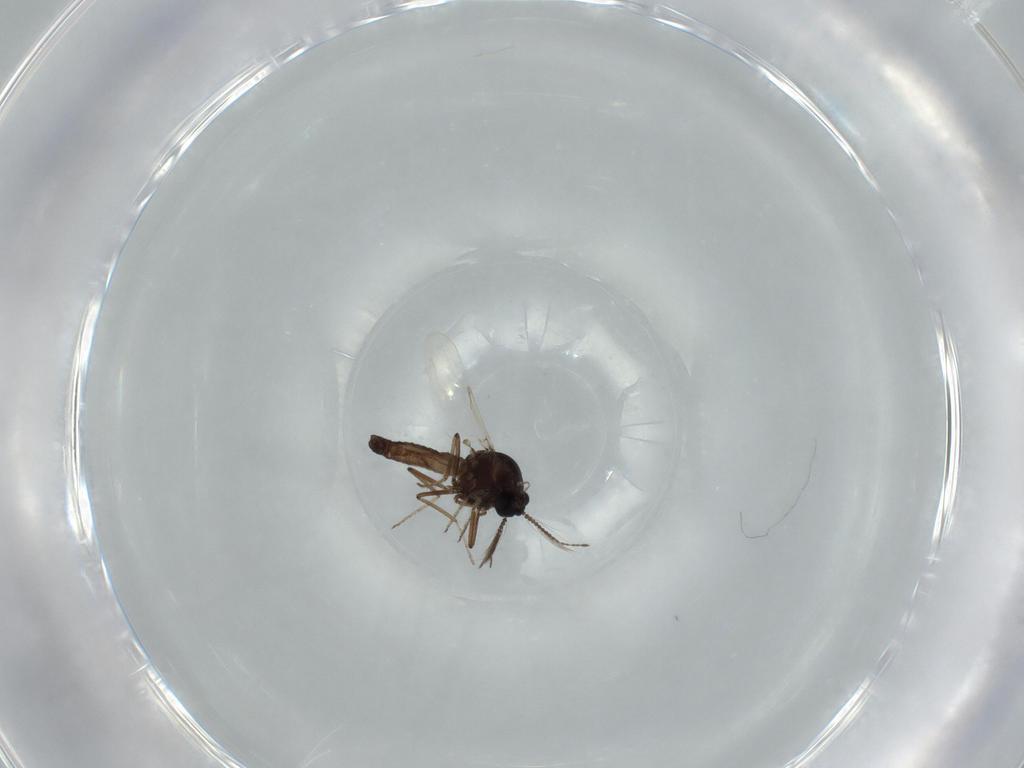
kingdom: Animalia
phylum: Arthropoda
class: Insecta
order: Diptera
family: Chironomidae
